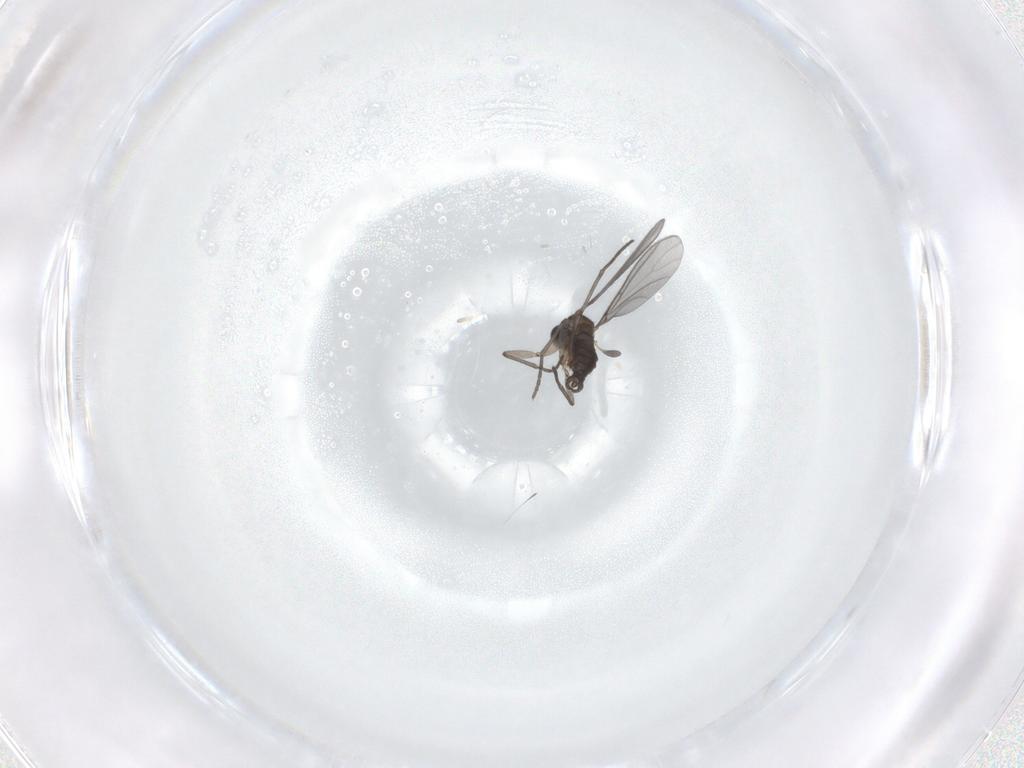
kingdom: Animalia
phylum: Arthropoda
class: Insecta
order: Diptera
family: Chironomidae
